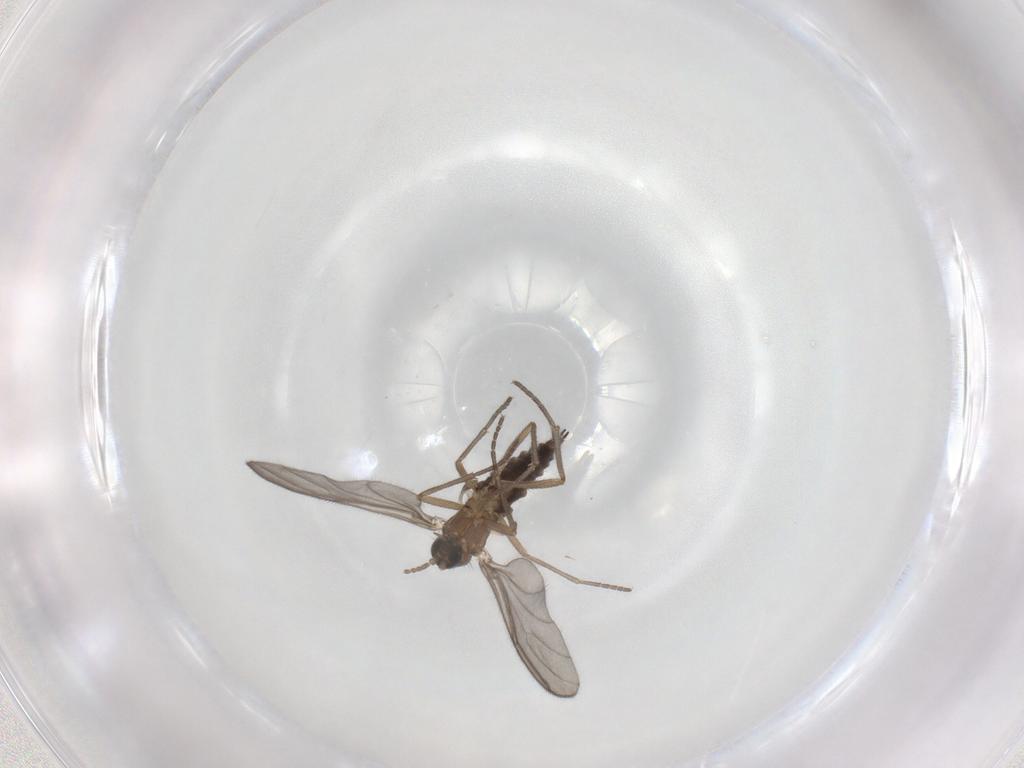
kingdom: Animalia
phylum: Arthropoda
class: Insecta
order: Diptera
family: Sciaridae
